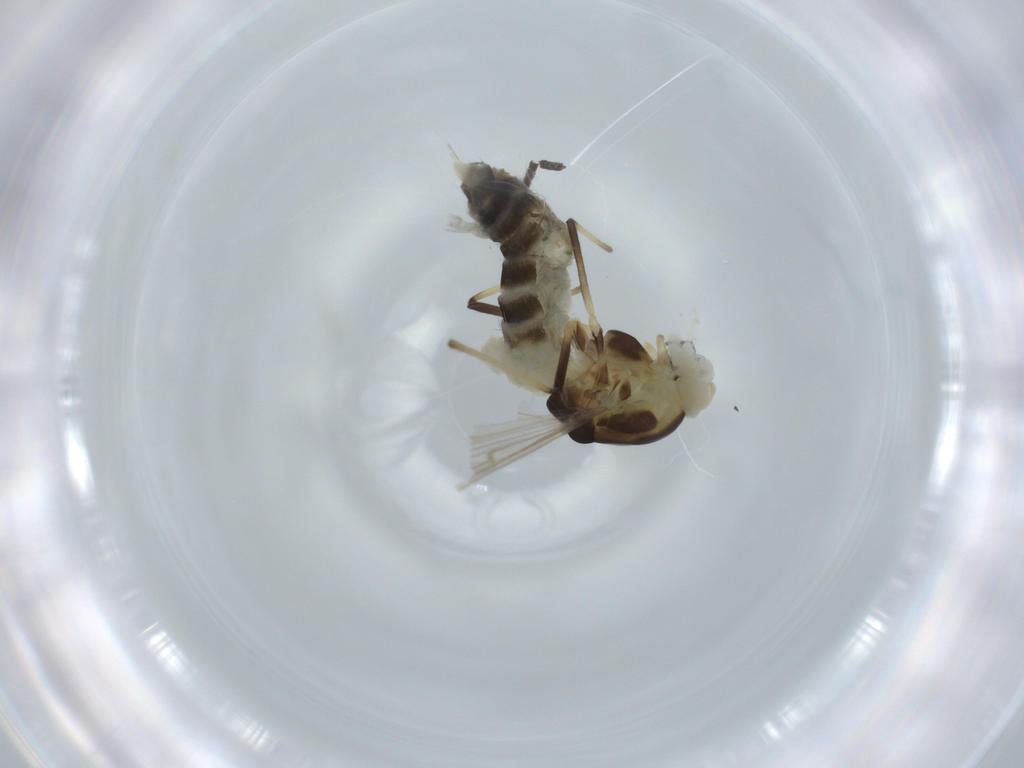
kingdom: Animalia
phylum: Arthropoda
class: Insecta
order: Diptera
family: Chironomidae
